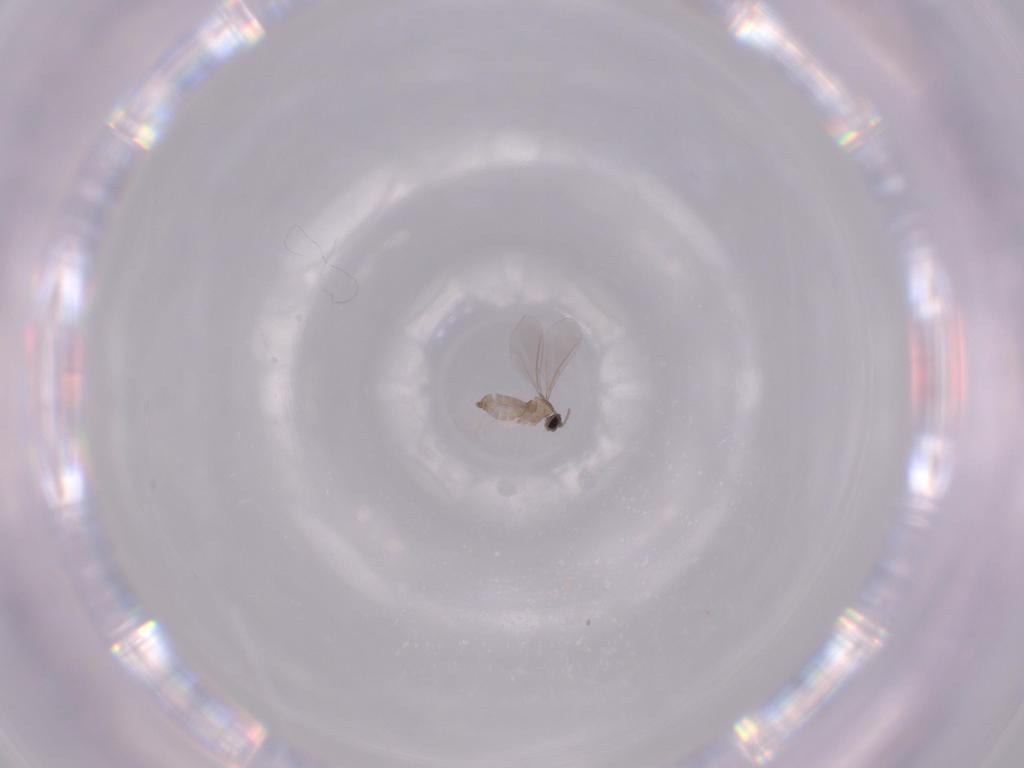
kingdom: Animalia
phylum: Arthropoda
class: Insecta
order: Diptera
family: Cecidomyiidae
